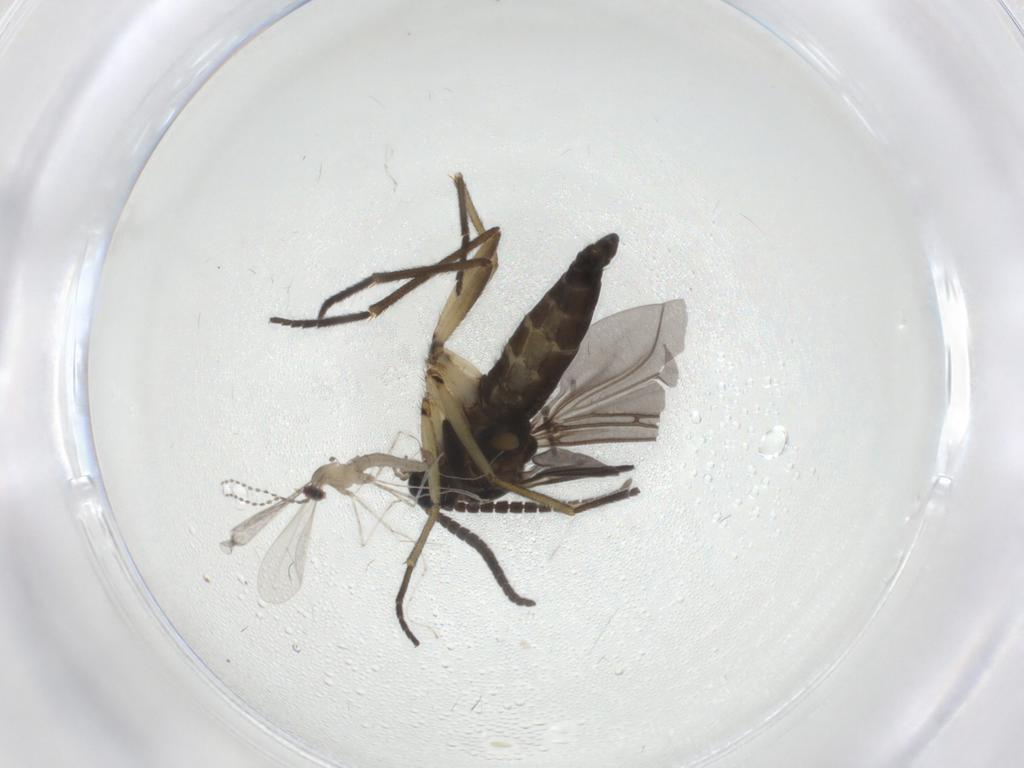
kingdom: Animalia
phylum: Arthropoda
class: Insecta
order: Diptera
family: Sciaridae
